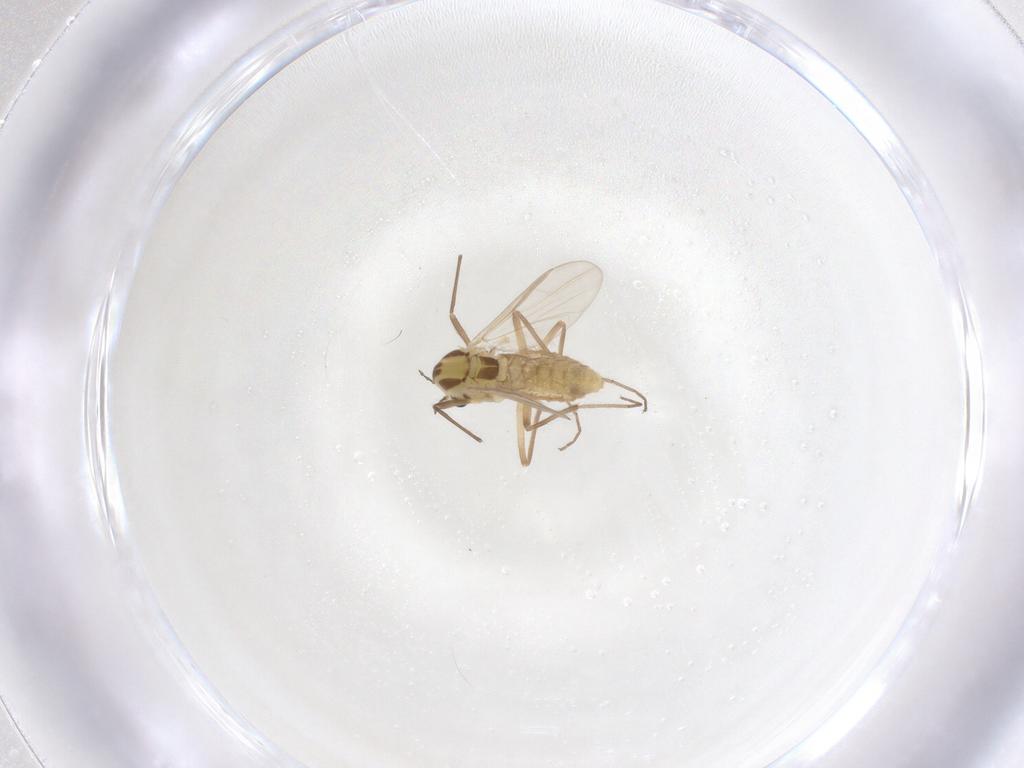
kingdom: Animalia
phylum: Arthropoda
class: Insecta
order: Diptera
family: Chironomidae
